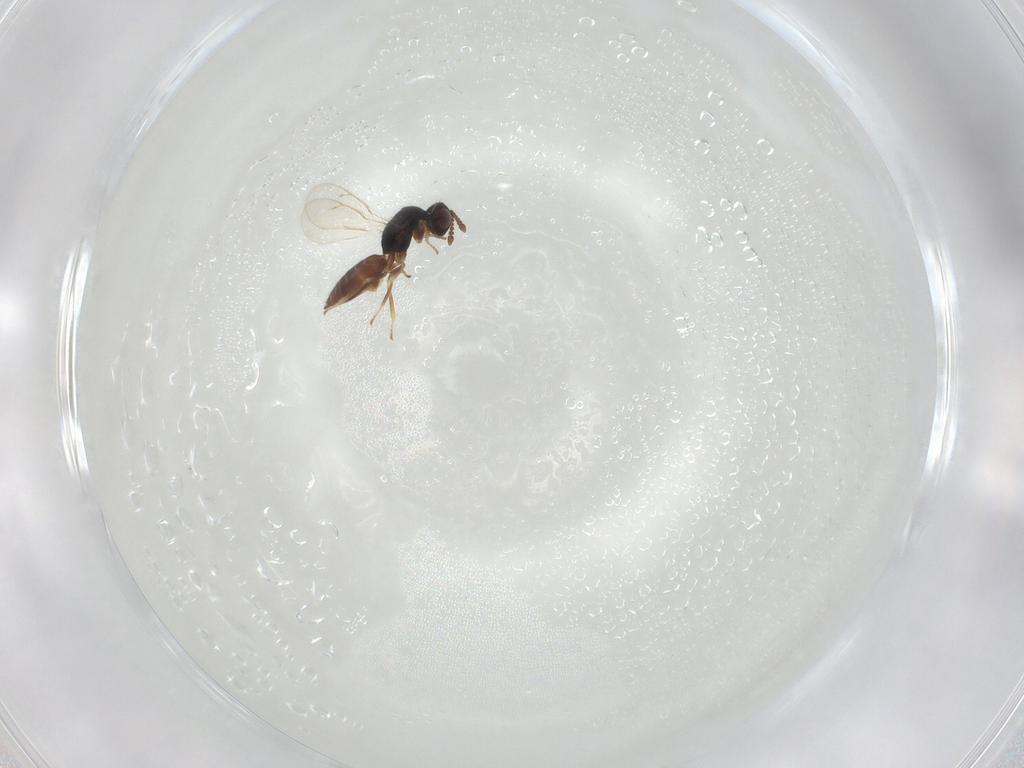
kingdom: Animalia
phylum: Arthropoda
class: Insecta
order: Hymenoptera
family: Eulophidae
